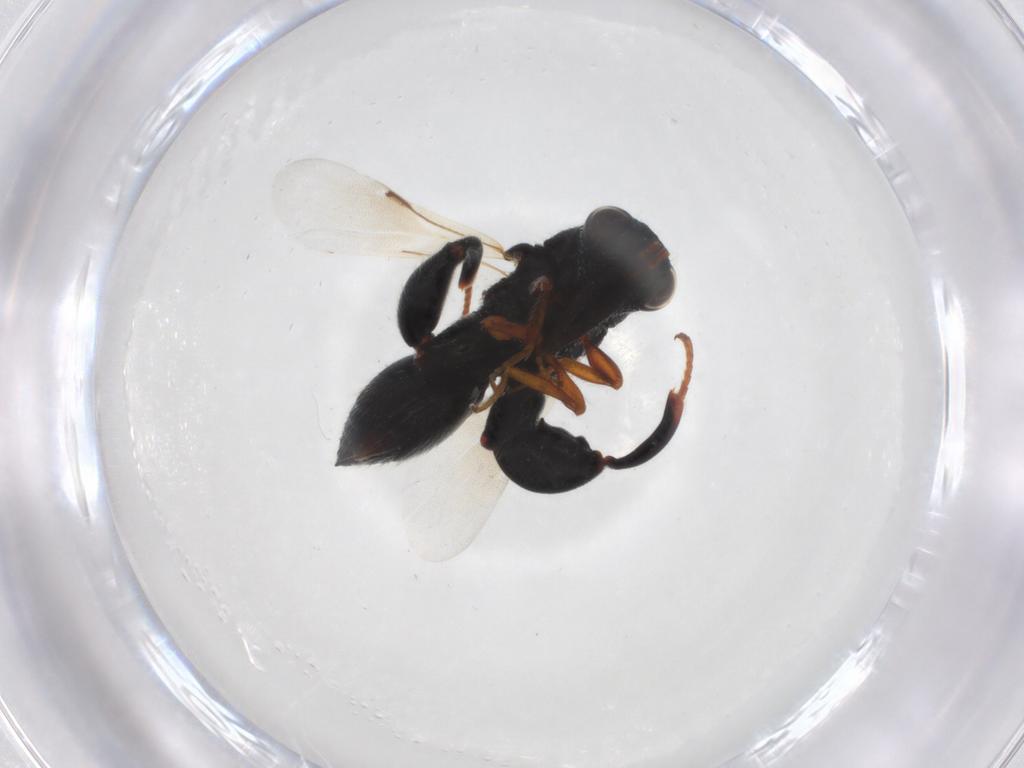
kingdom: Animalia
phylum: Arthropoda
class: Insecta
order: Hymenoptera
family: Chalcididae
